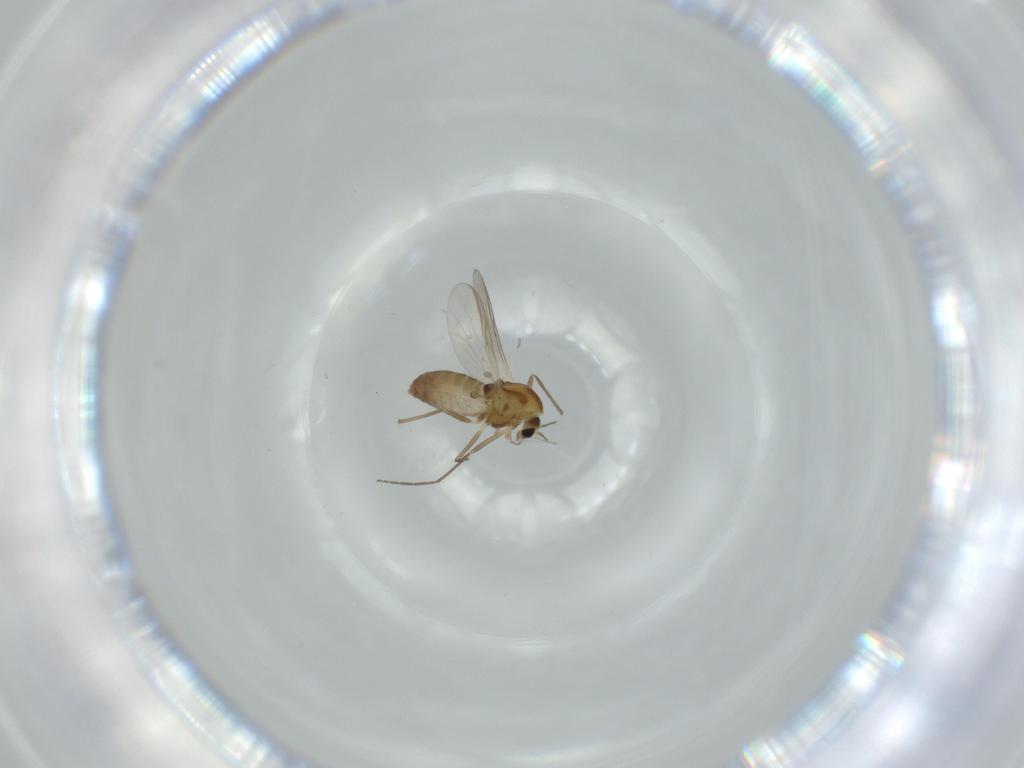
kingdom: Animalia
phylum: Arthropoda
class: Insecta
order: Diptera
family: Chironomidae
